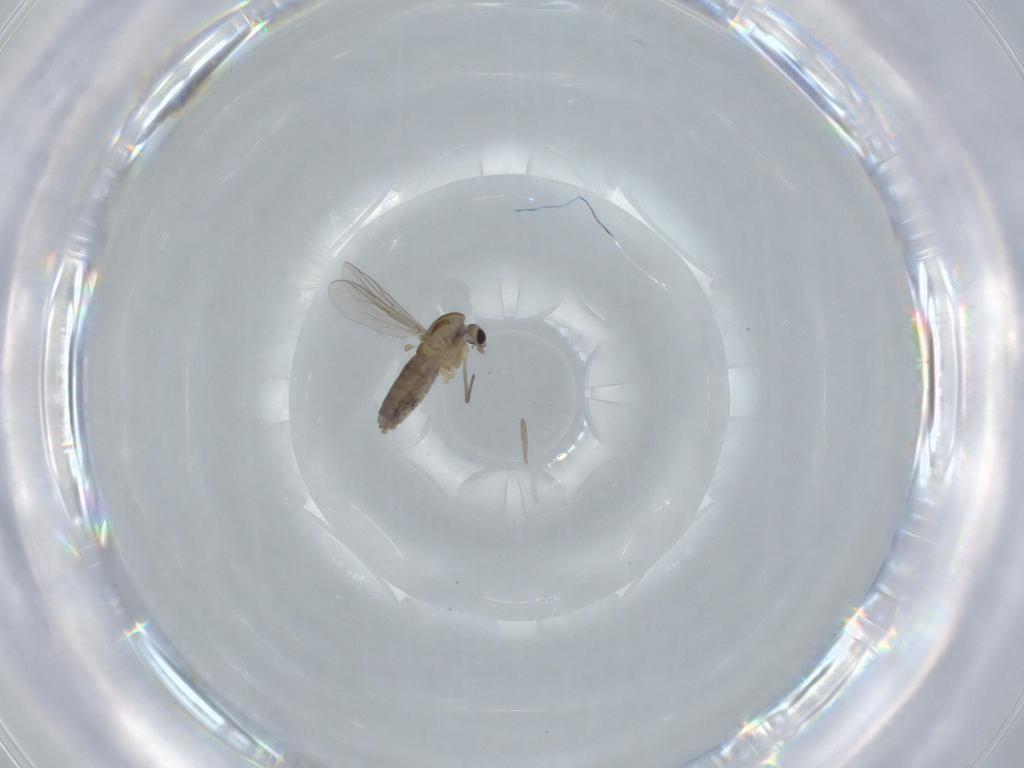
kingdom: Animalia
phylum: Arthropoda
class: Insecta
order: Diptera
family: Chironomidae
